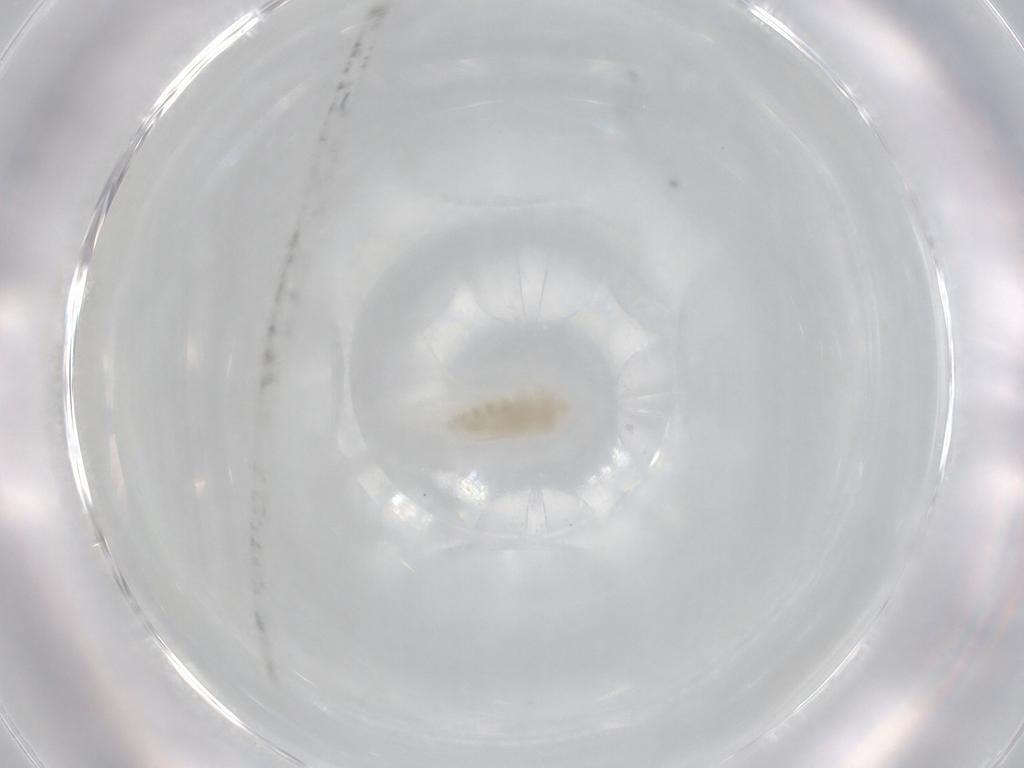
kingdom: Animalia
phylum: Arthropoda
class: Copepoda
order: Calanoida
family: Diaptomidae
